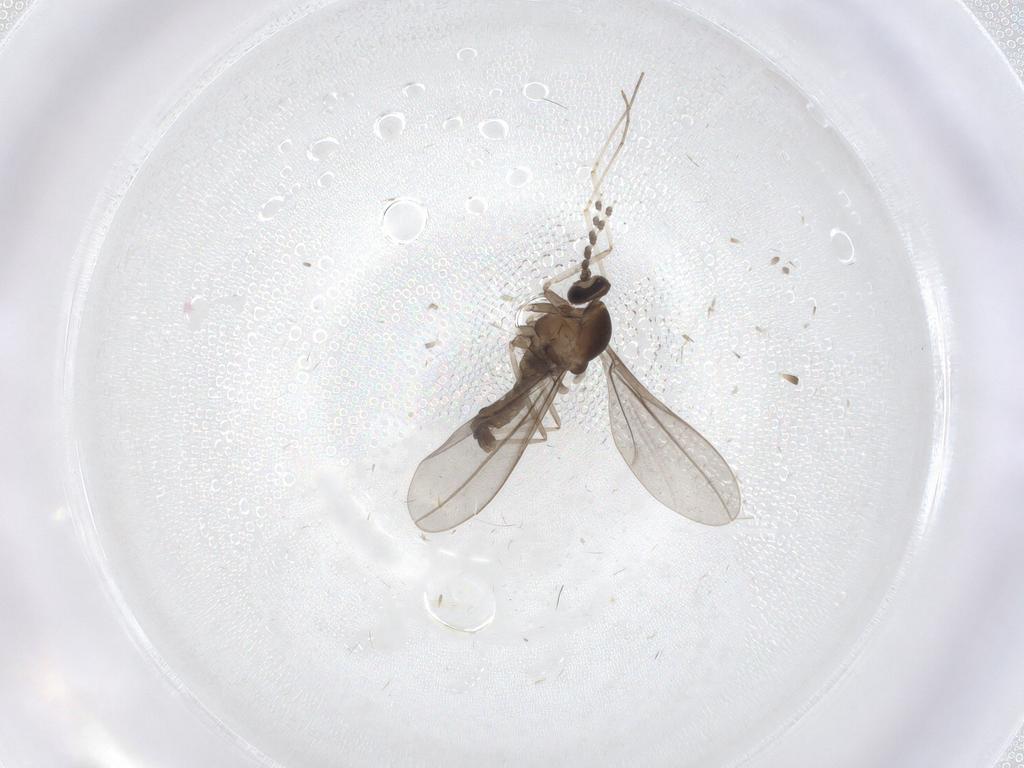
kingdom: Animalia
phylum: Arthropoda
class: Insecta
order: Diptera
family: Cecidomyiidae
